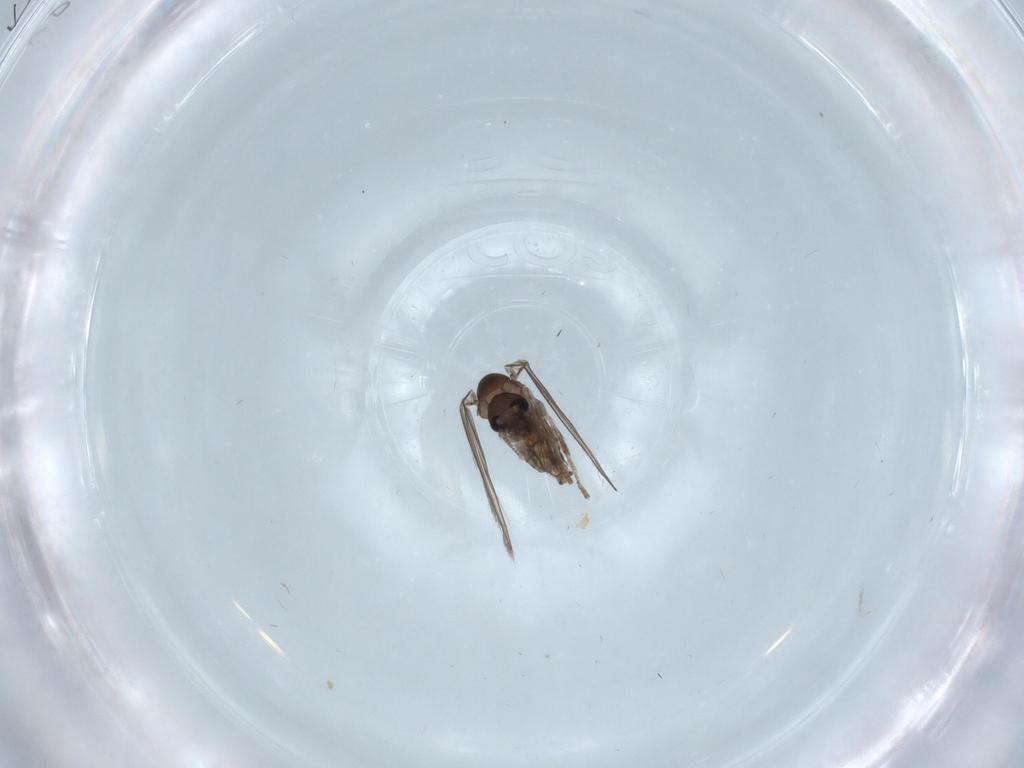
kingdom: Animalia
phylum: Arthropoda
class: Insecta
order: Diptera
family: Psychodidae
